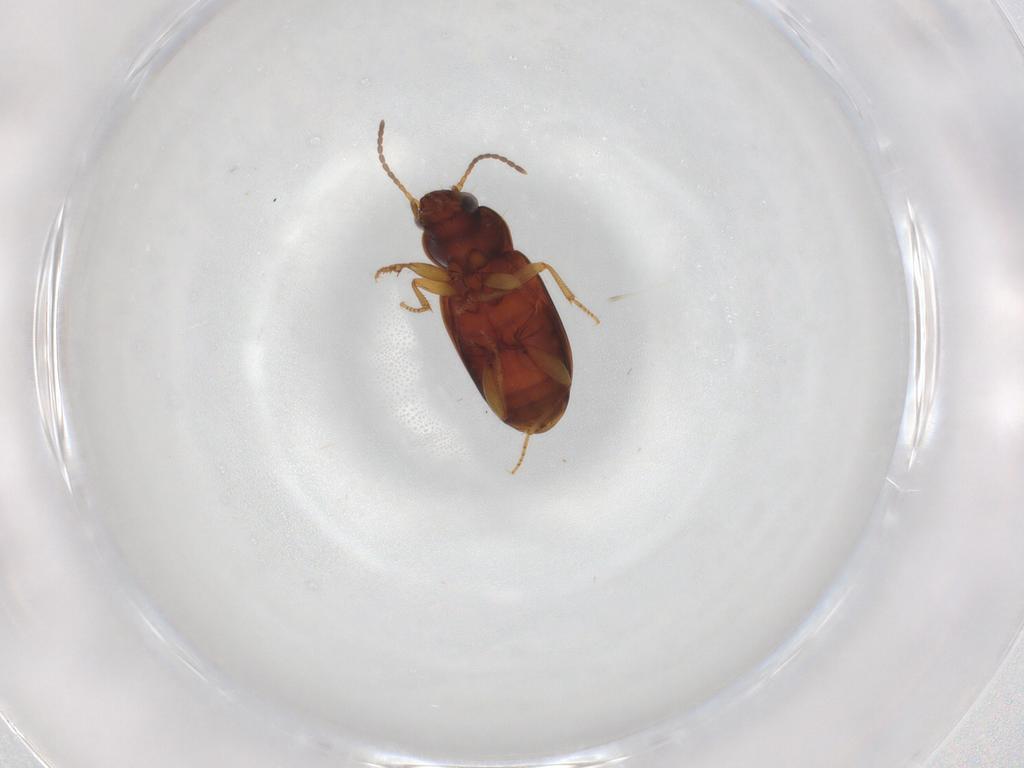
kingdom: Animalia
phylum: Arthropoda
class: Insecta
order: Coleoptera
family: Carabidae
